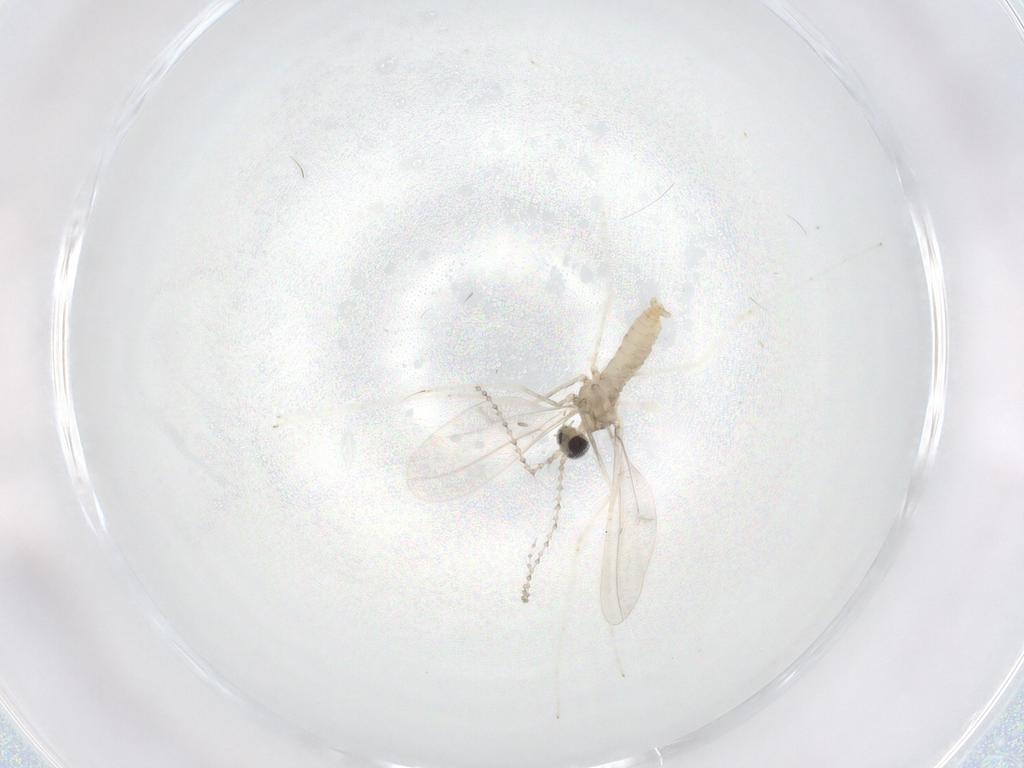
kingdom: Animalia
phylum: Arthropoda
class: Insecta
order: Diptera
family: Cecidomyiidae
